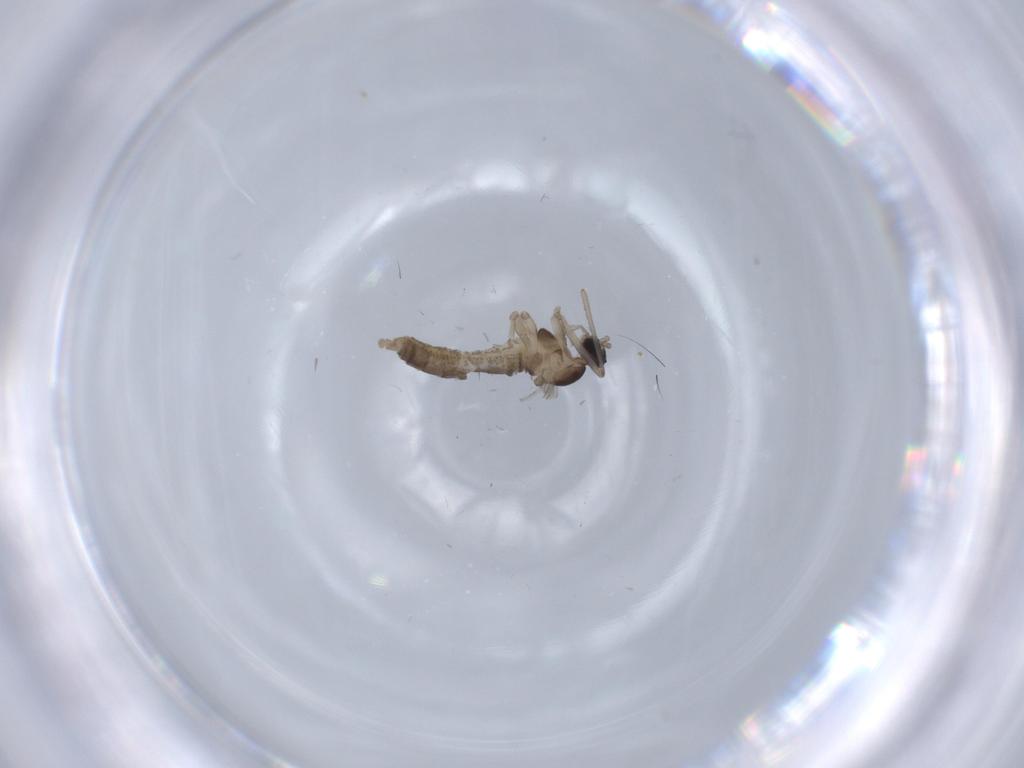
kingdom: Animalia
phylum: Arthropoda
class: Insecta
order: Diptera
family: Cecidomyiidae
